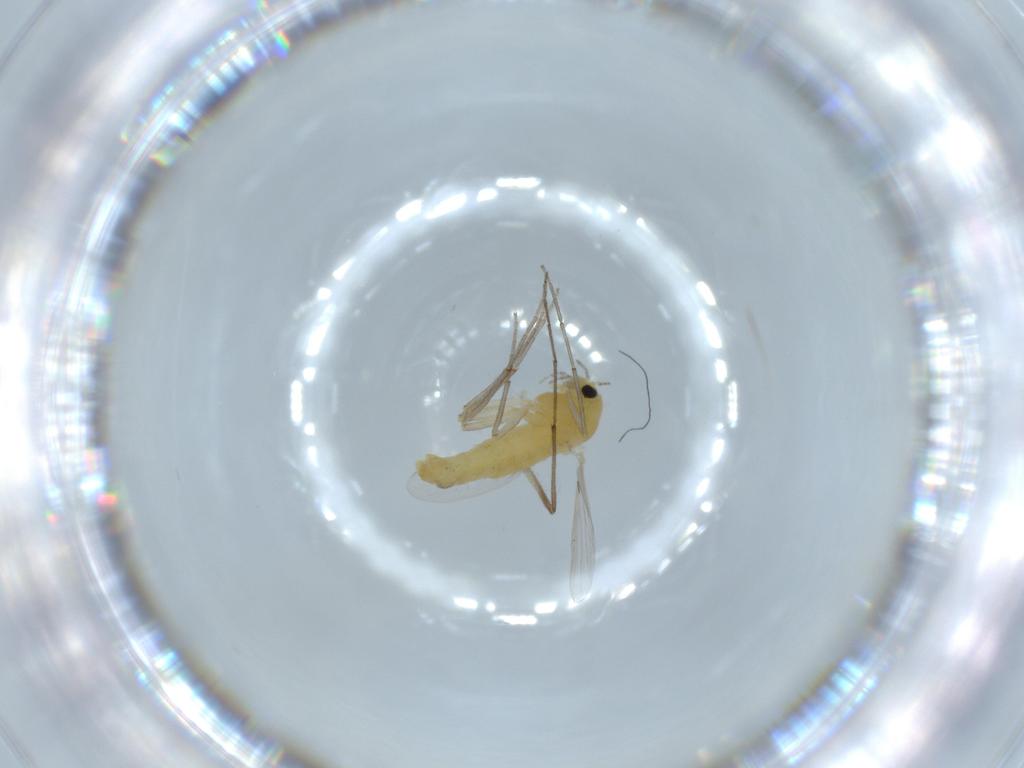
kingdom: Animalia
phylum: Arthropoda
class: Insecta
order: Diptera
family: Chironomidae
